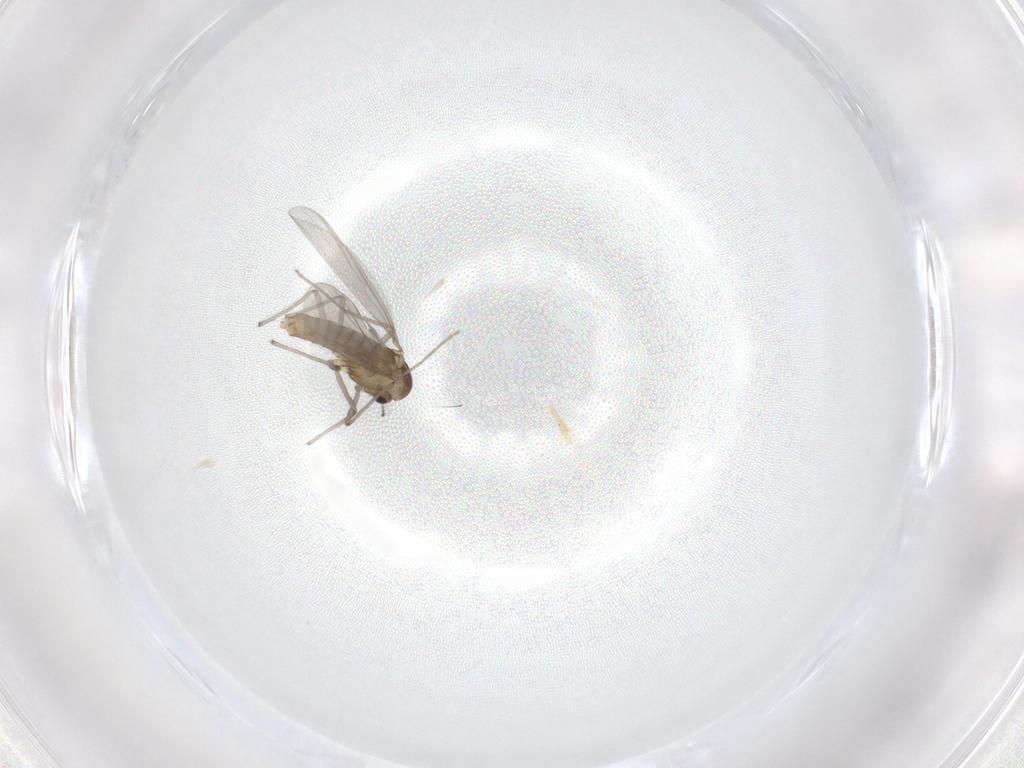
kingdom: Animalia
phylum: Arthropoda
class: Insecta
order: Diptera
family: Chironomidae
